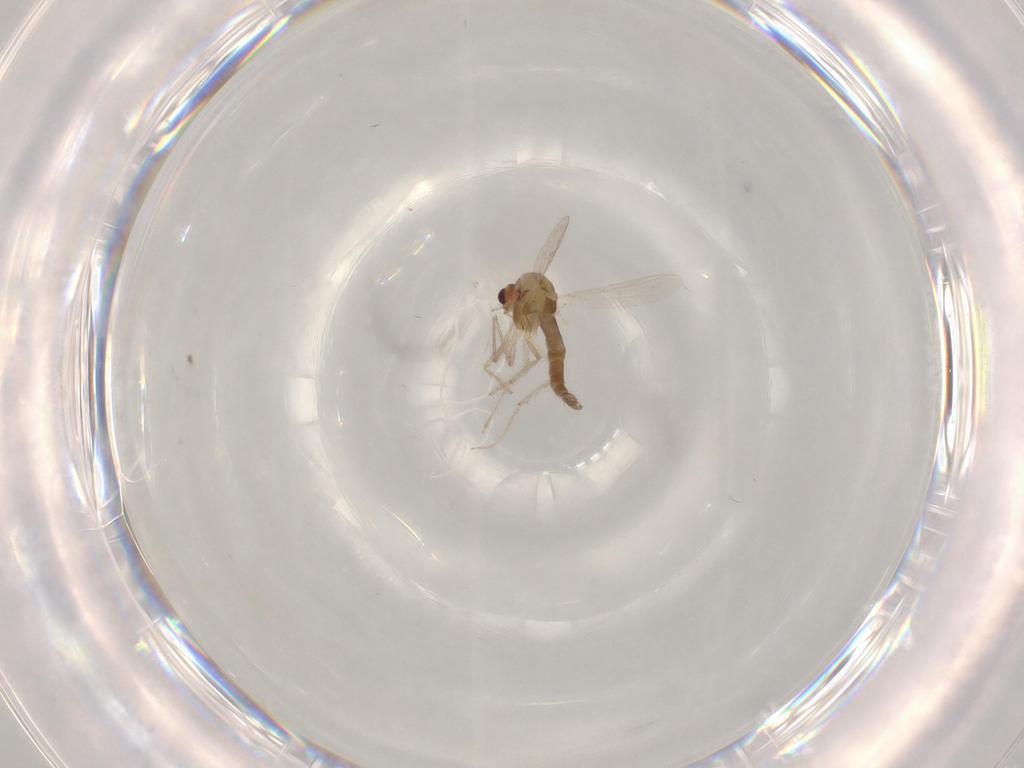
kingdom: Animalia
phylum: Arthropoda
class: Insecta
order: Diptera
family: Chironomidae
